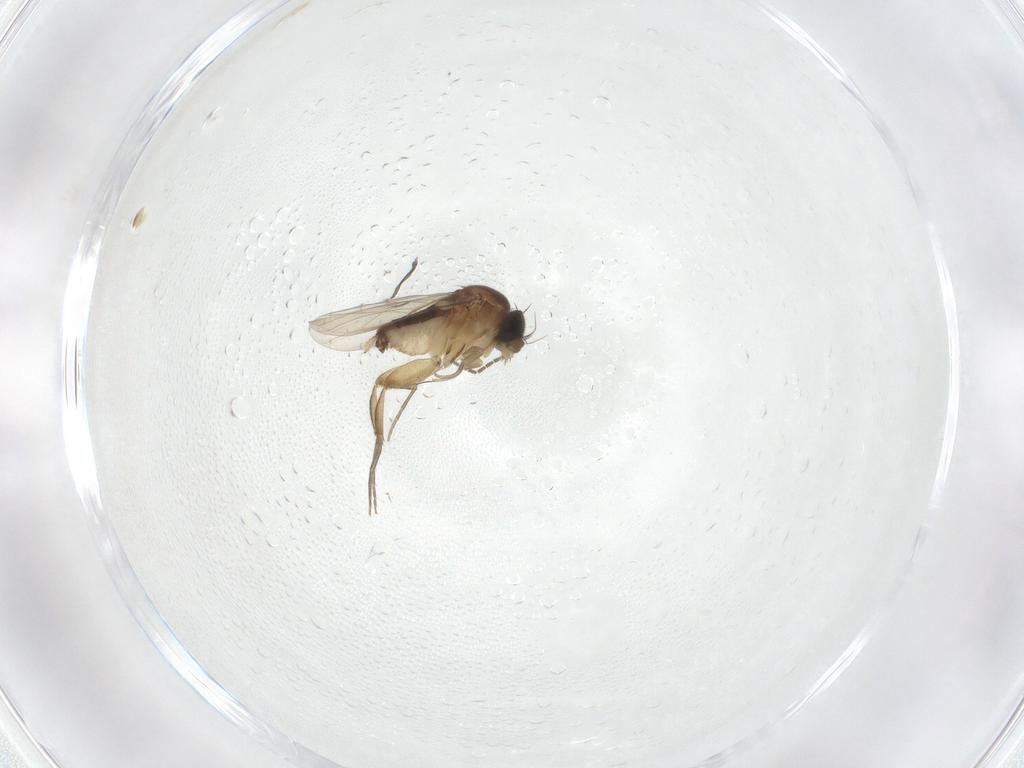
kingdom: Animalia
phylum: Arthropoda
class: Insecta
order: Diptera
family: Phoridae
